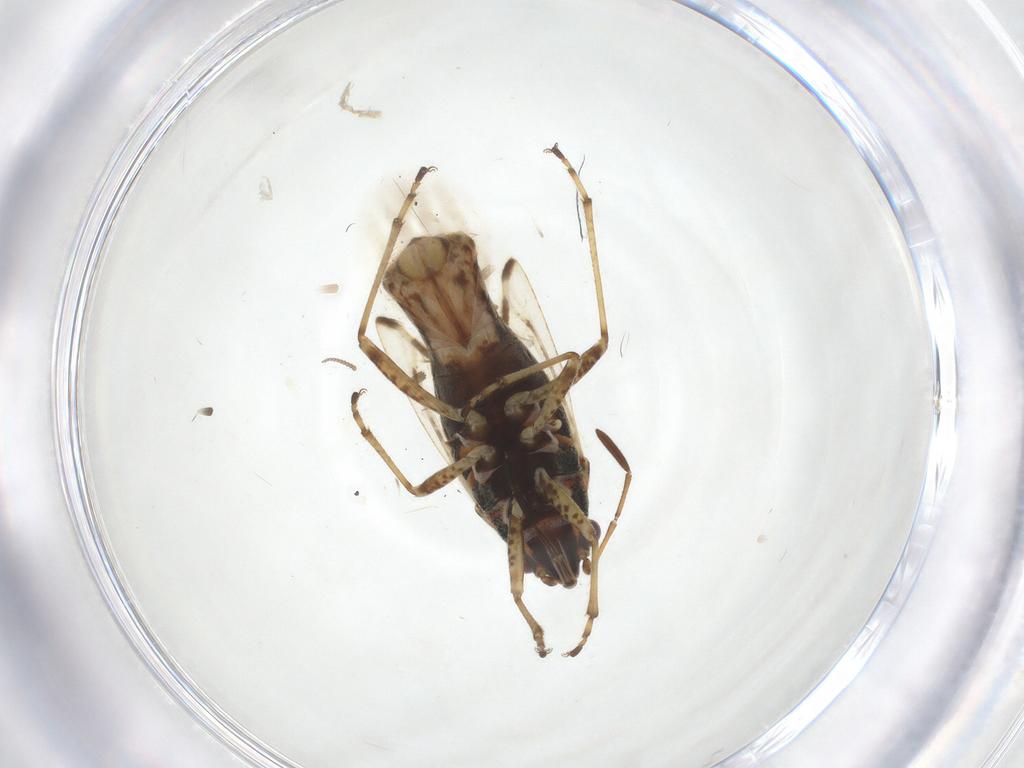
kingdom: Animalia
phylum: Arthropoda
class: Insecta
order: Hemiptera
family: Lygaeidae
